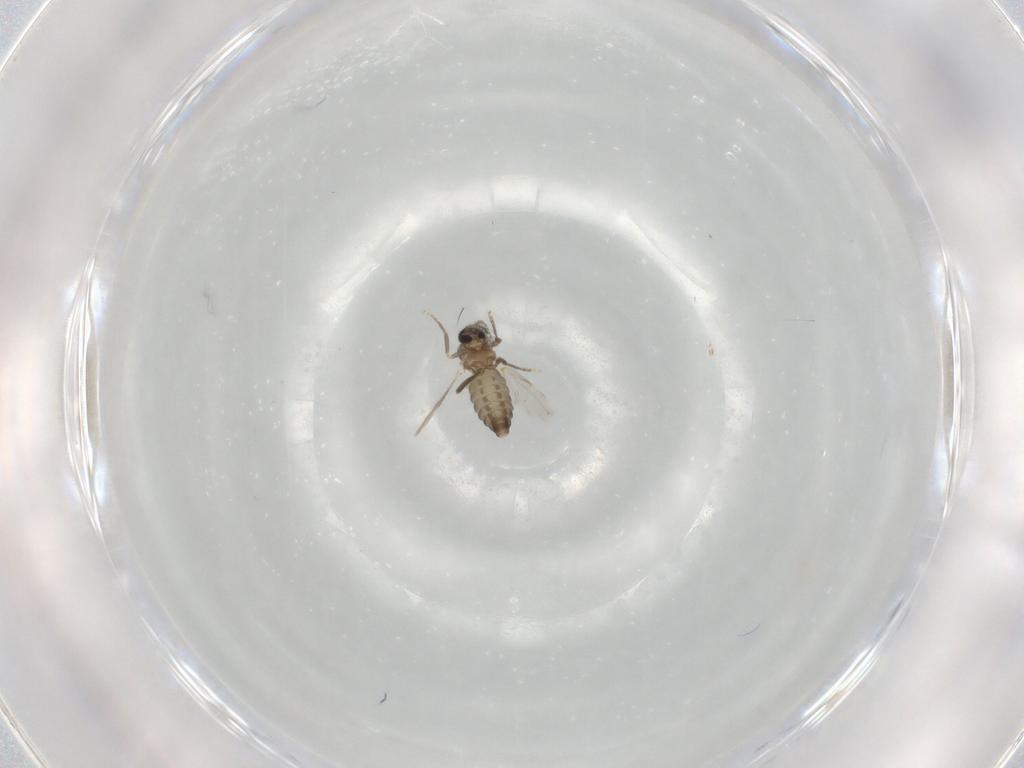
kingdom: Animalia
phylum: Arthropoda
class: Insecta
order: Diptera
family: Ceratopogonidae
